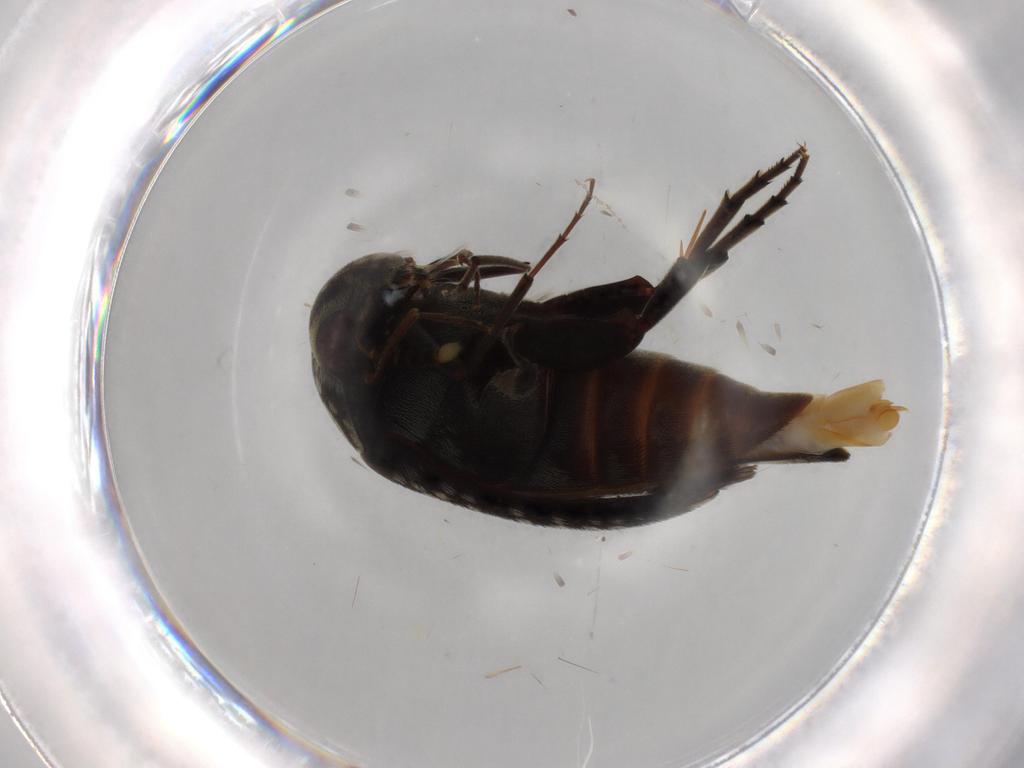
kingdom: Animalia
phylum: Arthropoda
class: Insecta
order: Coleoptera
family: Mordellidae
